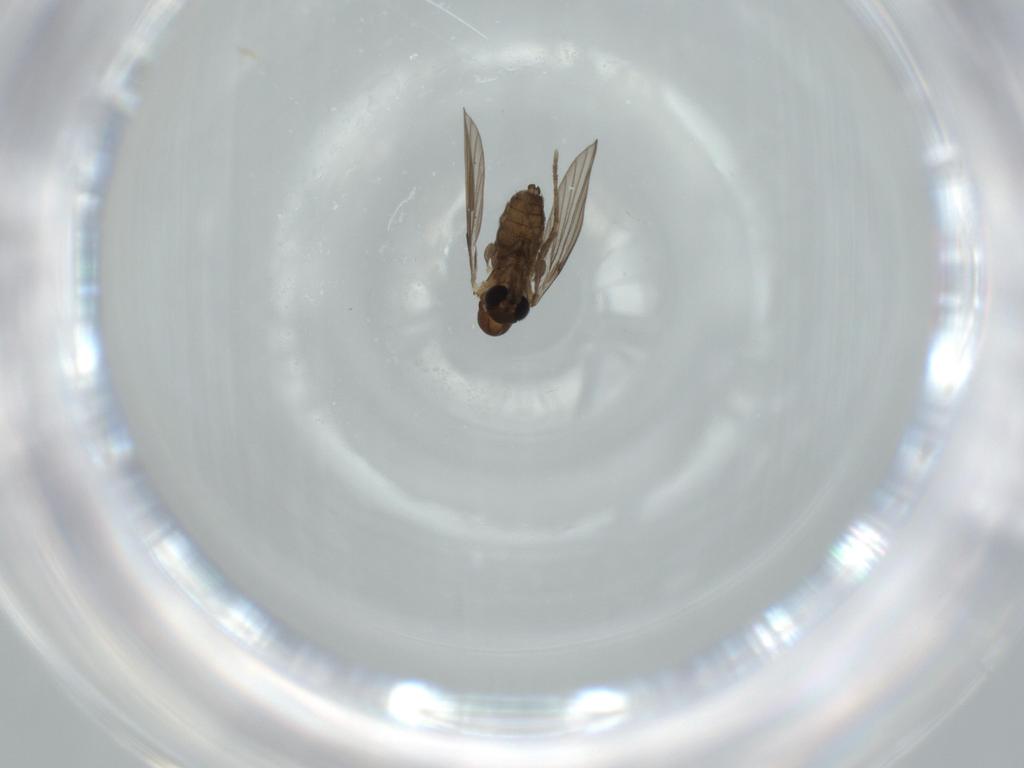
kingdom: Animalia
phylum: Arthropoda
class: Insecta
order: Diptera
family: Psychodidae
